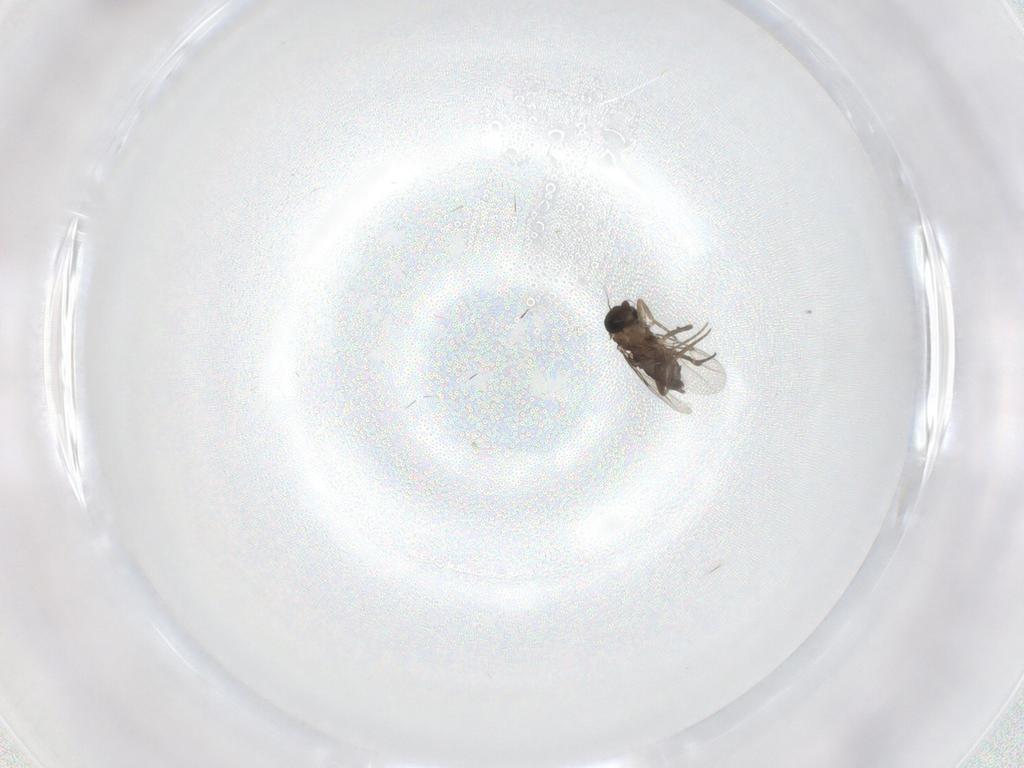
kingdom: Animalia
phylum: Arthropoda
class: Insecta
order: Diptera
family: Phoridae
